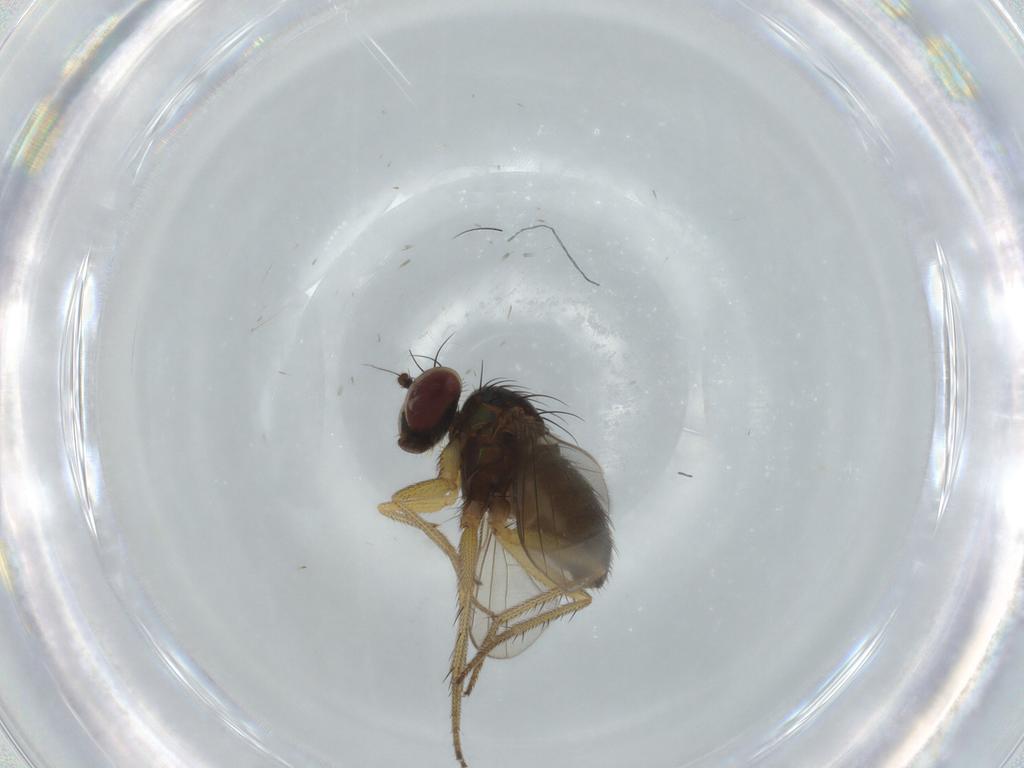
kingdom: Animalia
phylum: Arthropoda
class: Insecta
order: Diptera
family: Dolichopodidae
